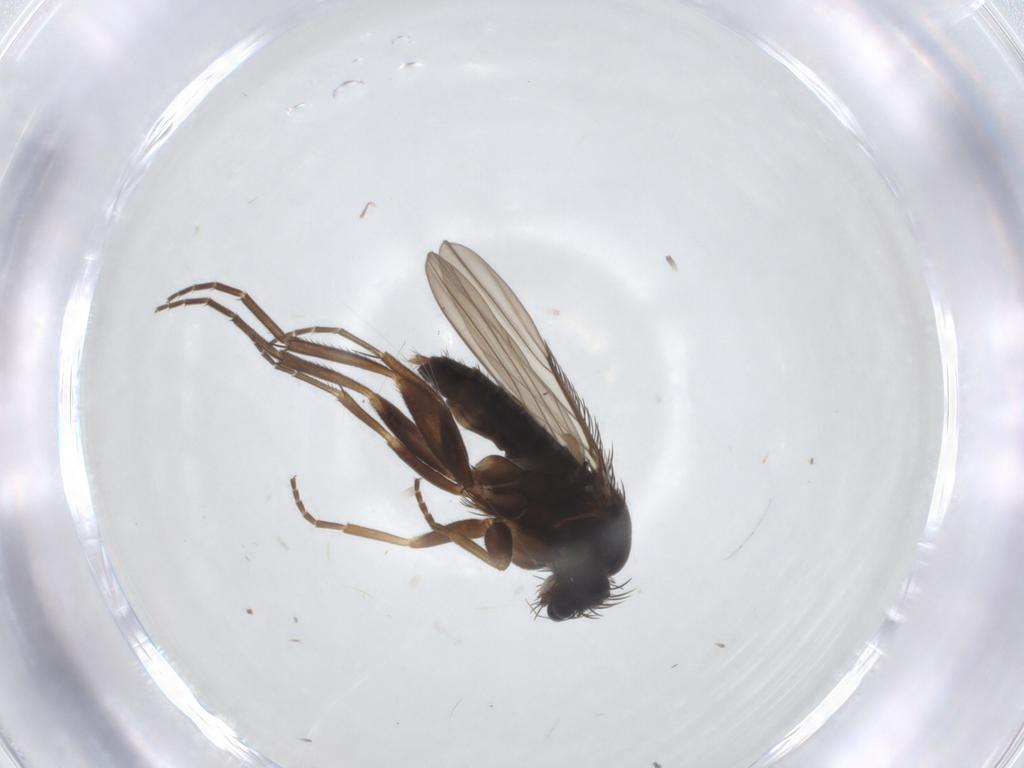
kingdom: Animalia
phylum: Arthropoda
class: Insecta
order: Diptera
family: Phoridae
